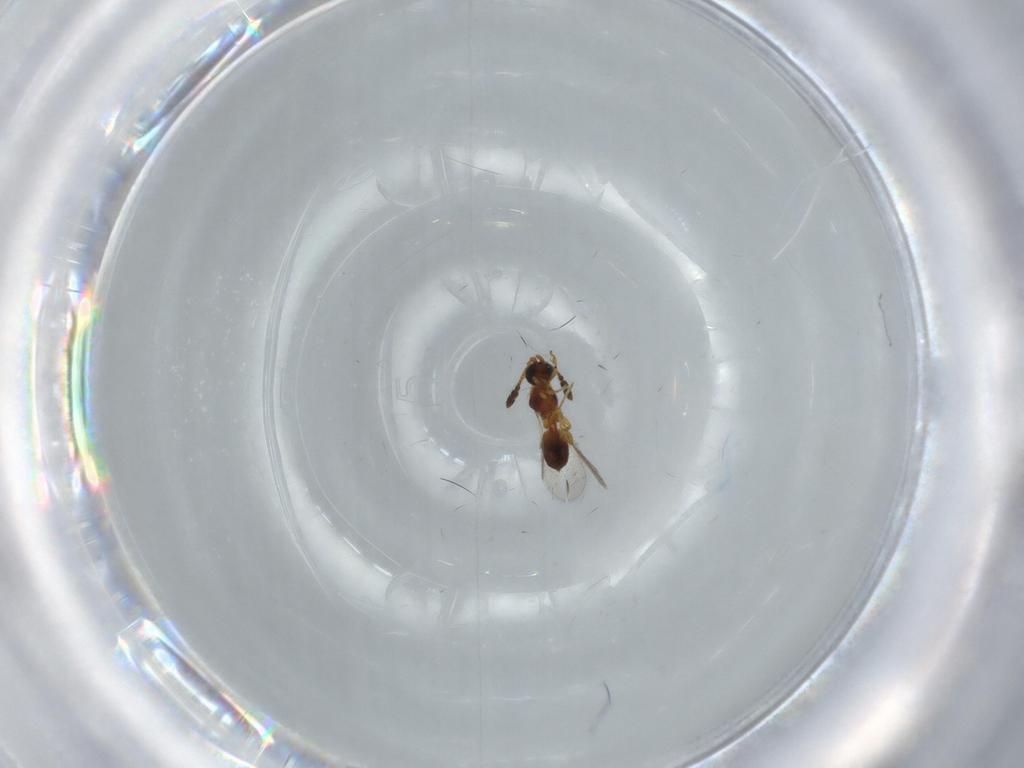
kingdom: Animalia
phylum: Arthropoda
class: Insecta
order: Hymenoptera
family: Diapriidae
